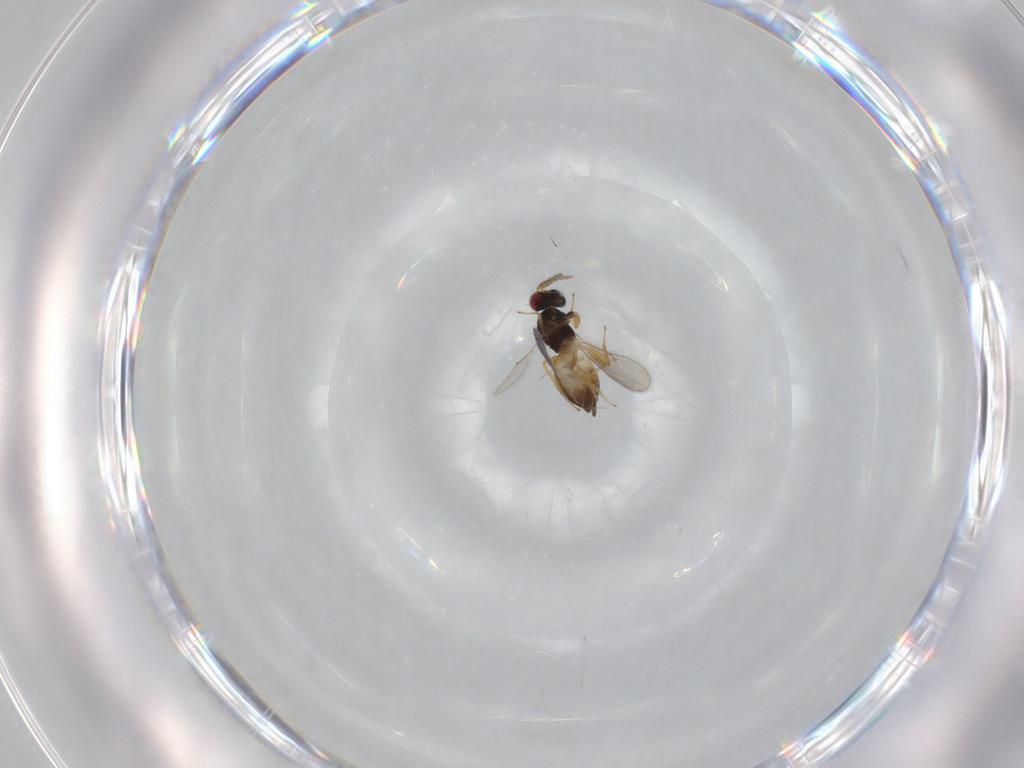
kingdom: Animalia
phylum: Arthropoda
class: Insecta
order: Hymenoptera
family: Eulophidae
